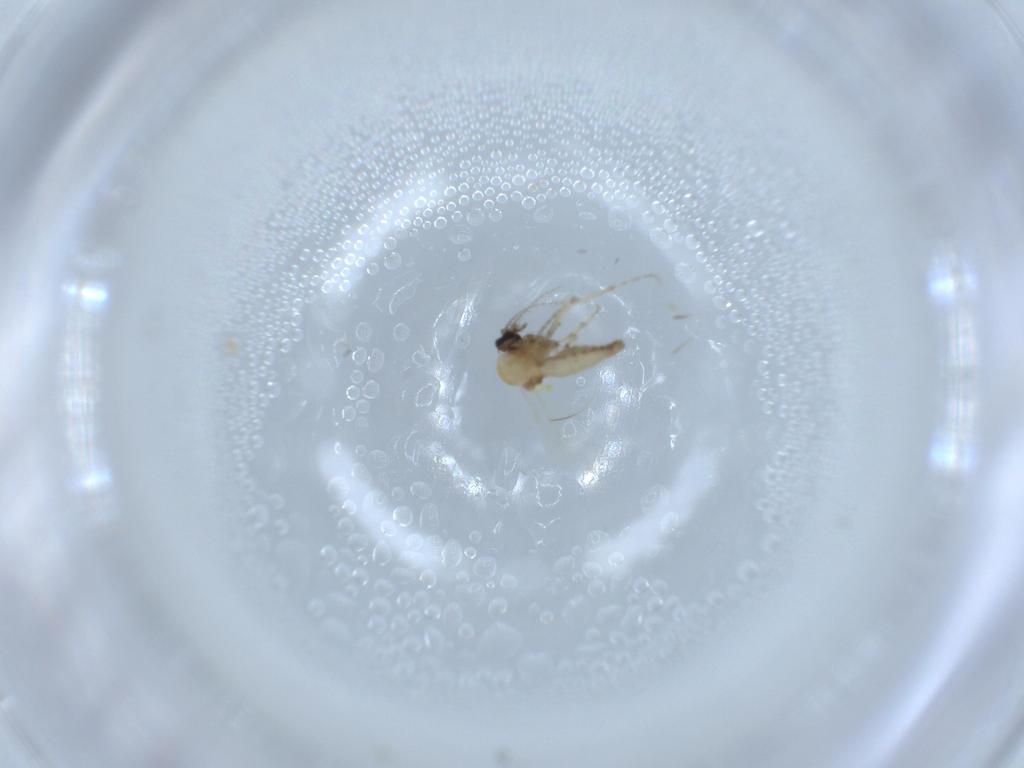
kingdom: Animalia
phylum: Arthropoda
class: Insecta
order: Diptera
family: Ceratopogonidae
